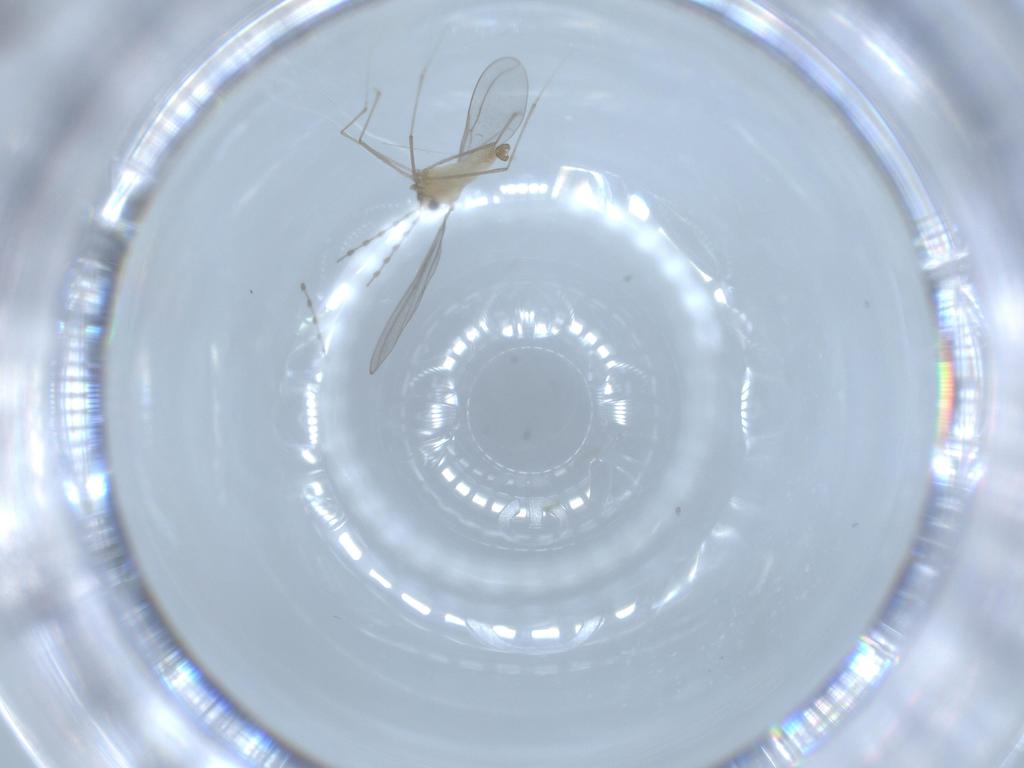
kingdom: Animalia
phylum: Arthropoda
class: Insecta
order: Diptera
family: Cecidomyiidae
